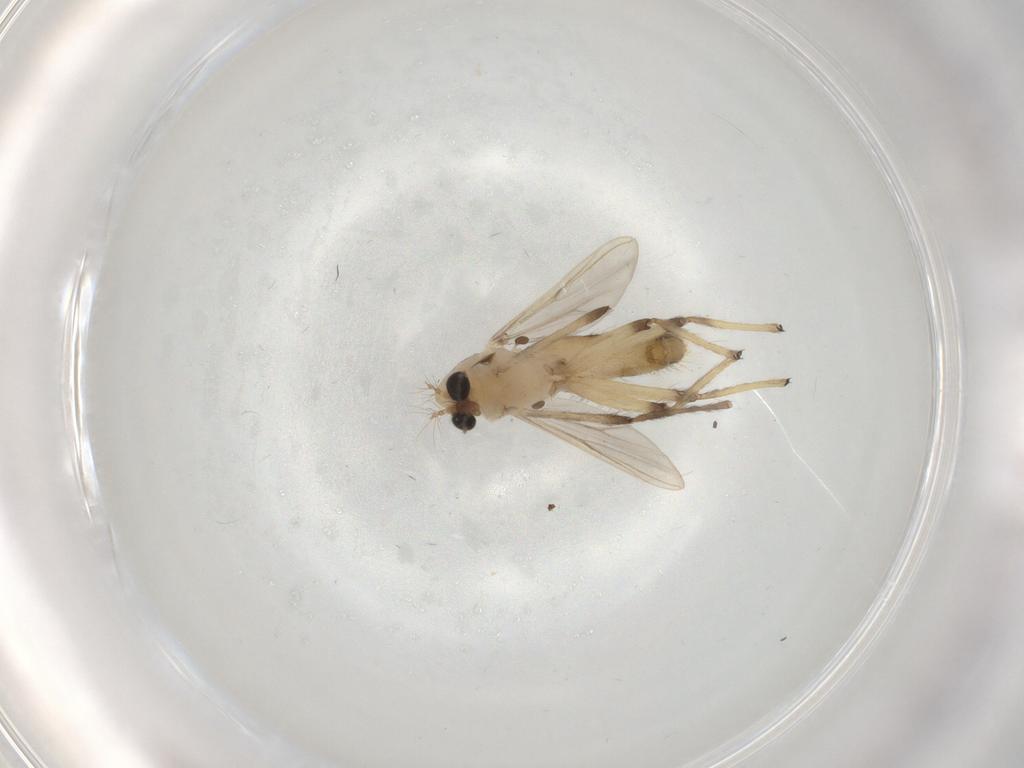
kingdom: Animalia
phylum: Arthropoda
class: Insecta
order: Diptera
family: Chironomidae
